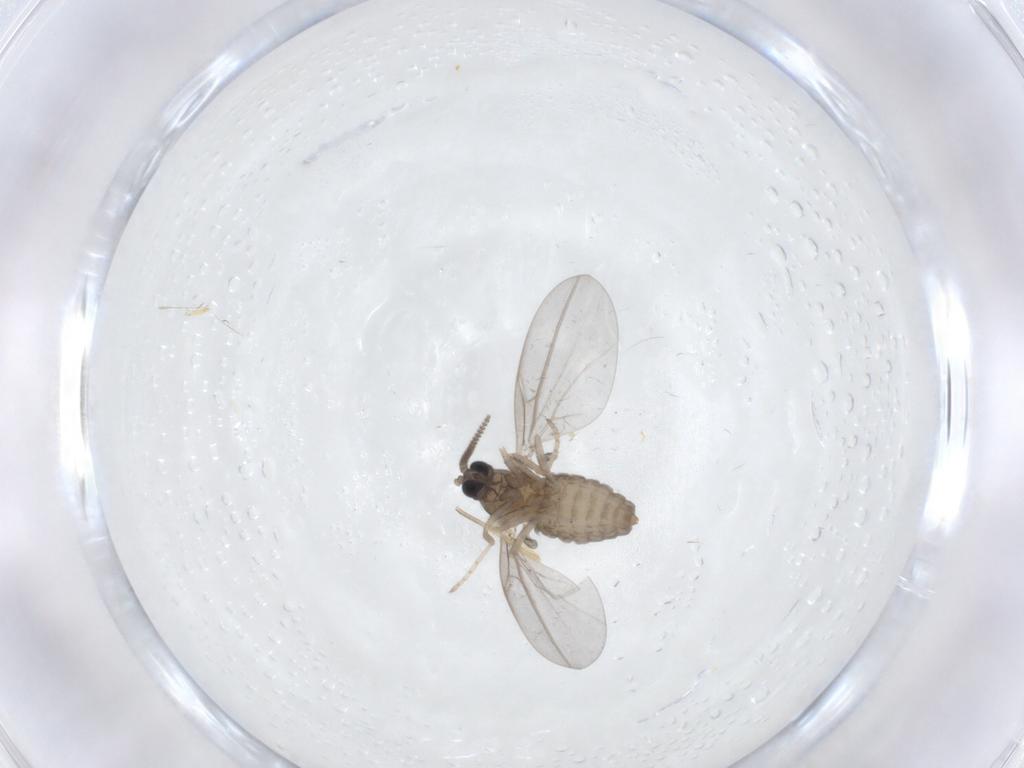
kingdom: Animalia
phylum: Arthropoda
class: Insecta
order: Diptera
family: Cecidomyiidae
